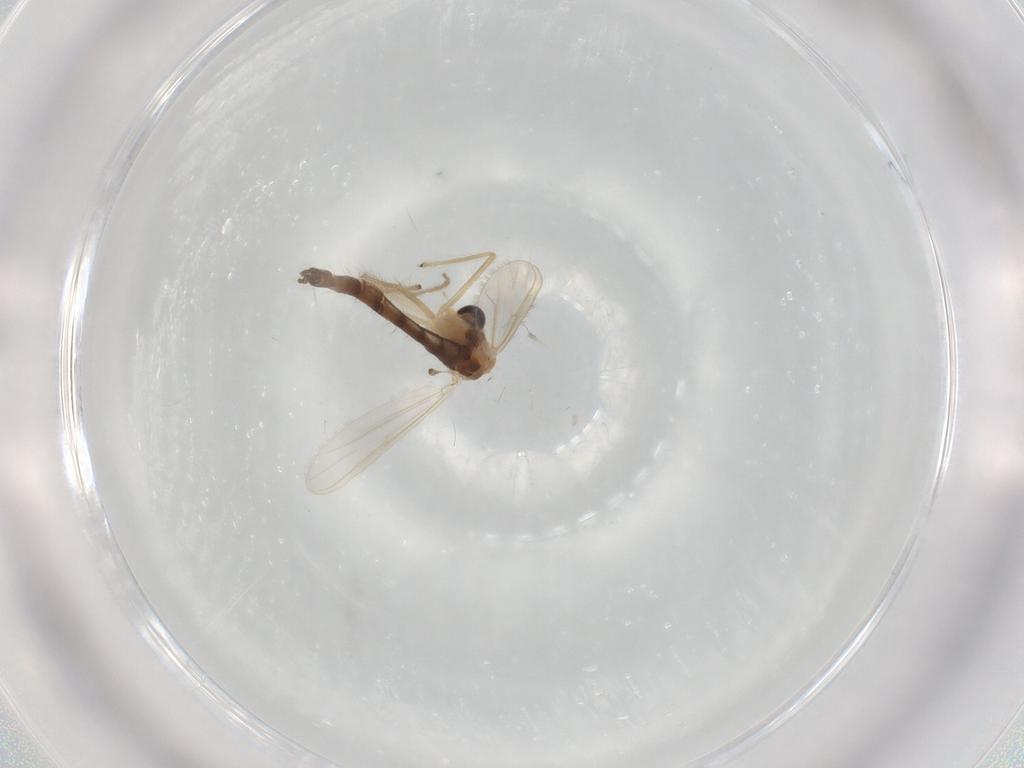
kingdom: Animalia
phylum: Arthropoda
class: Insecta
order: Diptera
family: Chironomidae
